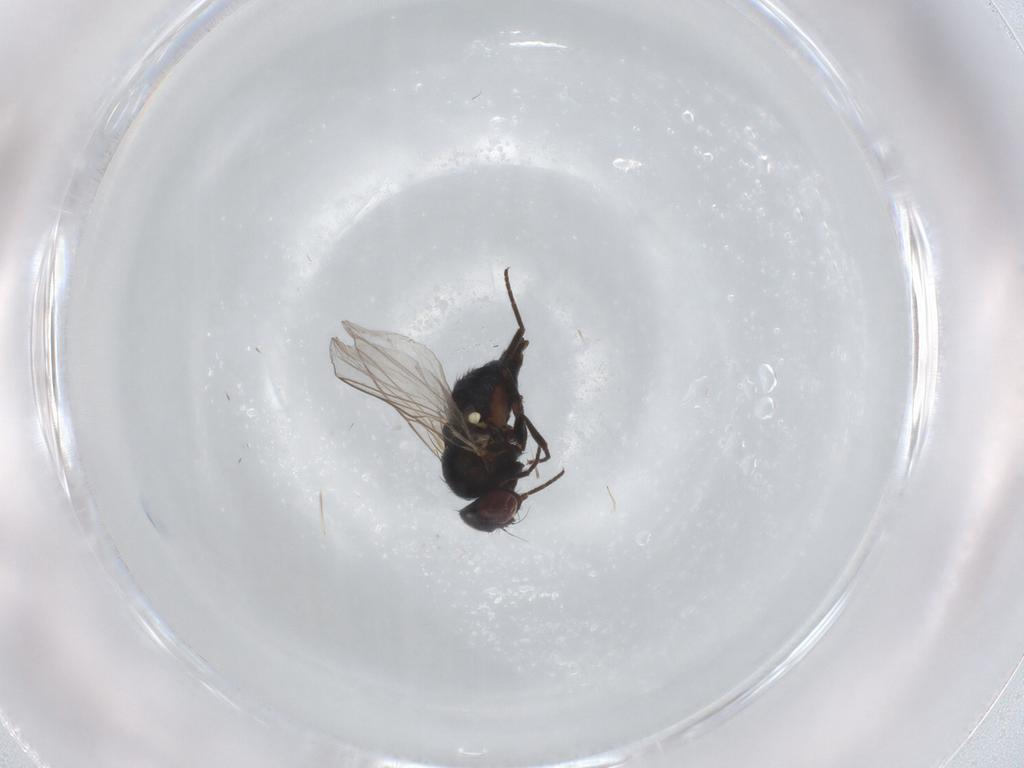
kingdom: Animalia
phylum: Arthropoda
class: Insecta
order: Diptera
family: Agromyzidae
